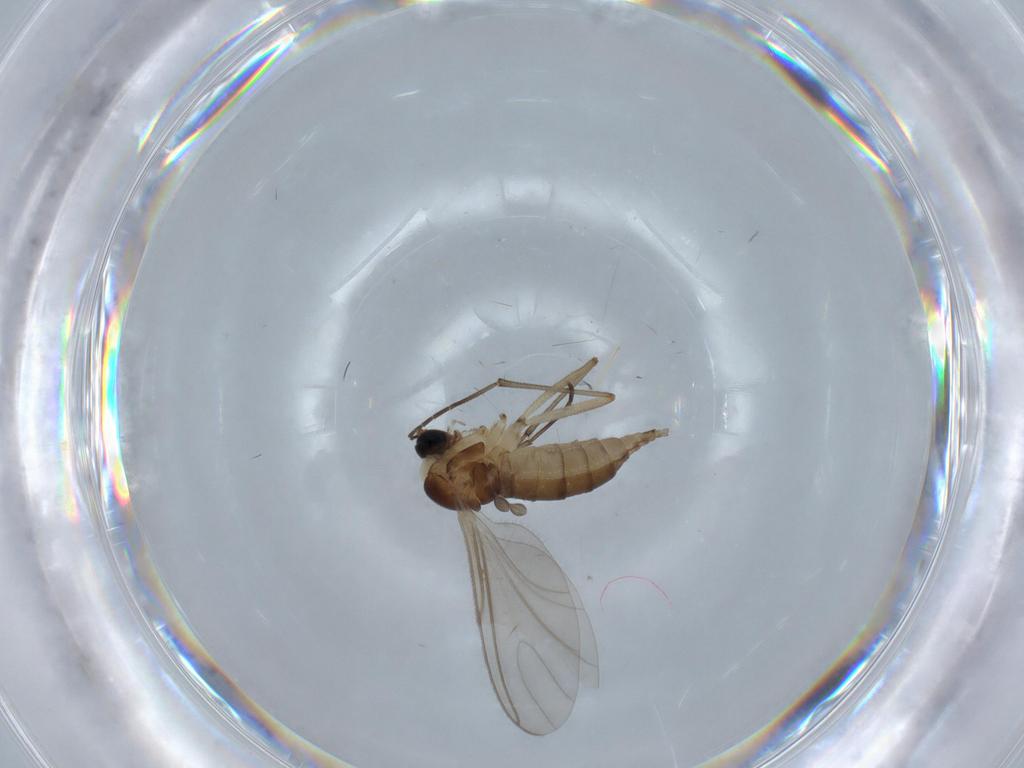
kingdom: Animalia
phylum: Arthropoda
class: Insecta
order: Diptera
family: Sciaridae
